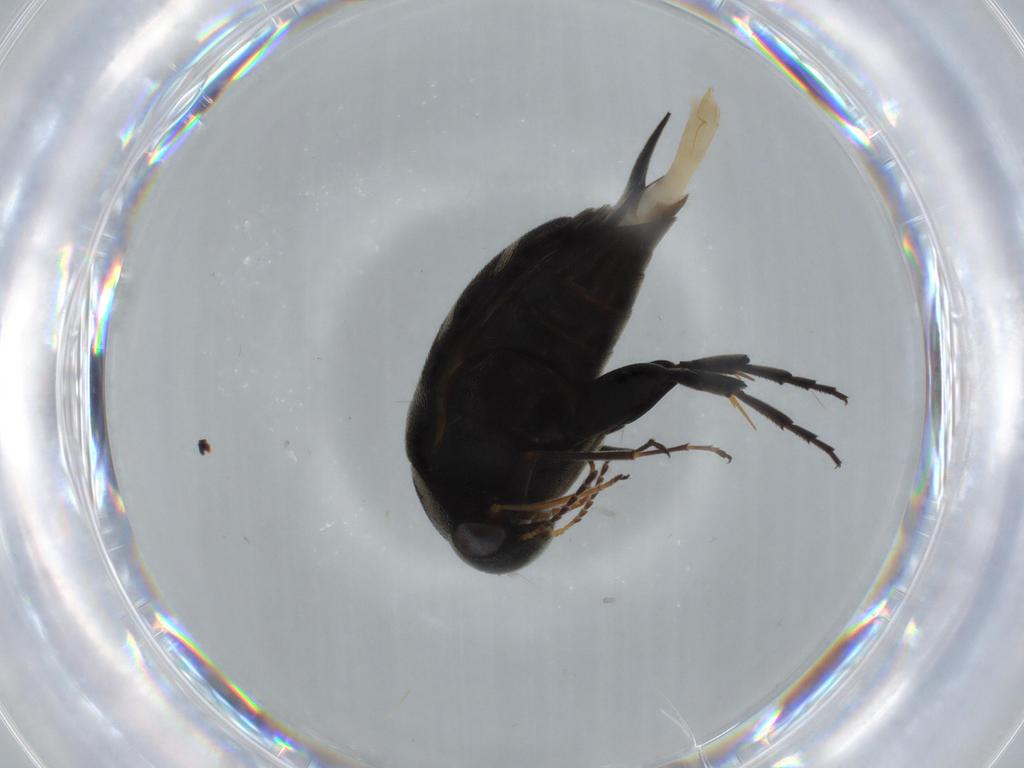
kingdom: Animalia
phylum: Arthropoda
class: Insecta
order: Coleoptera
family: Mordellidae
